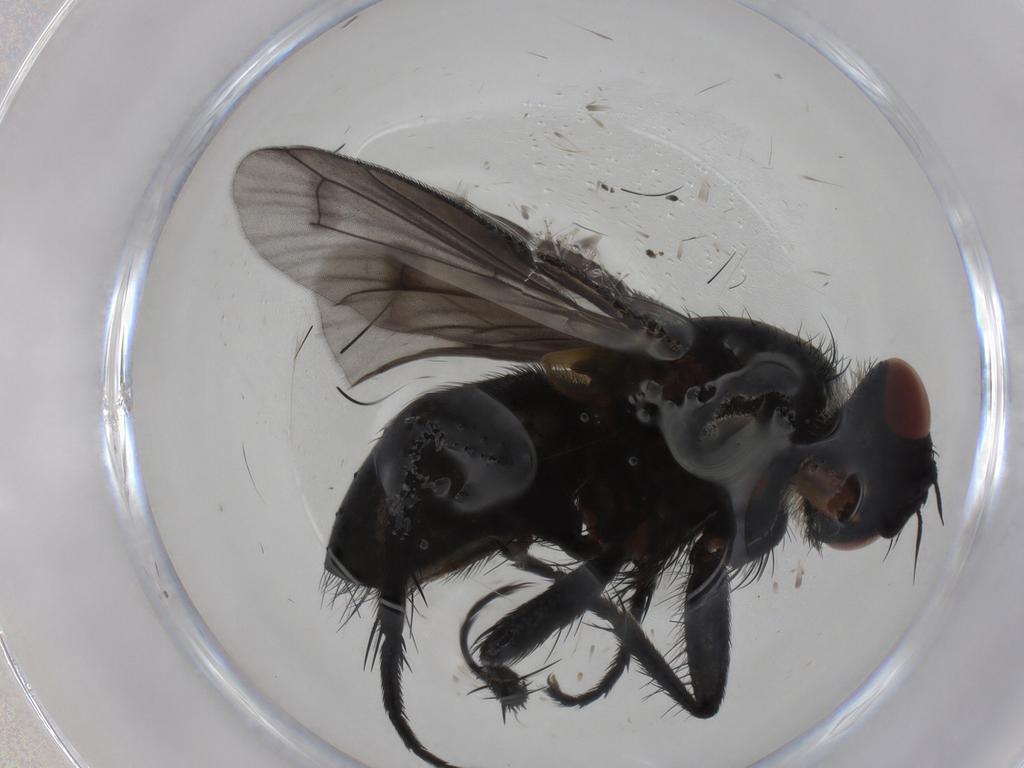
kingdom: Animalia
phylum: Arthropoda
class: Insecta
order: Diptera
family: Tachinidae
